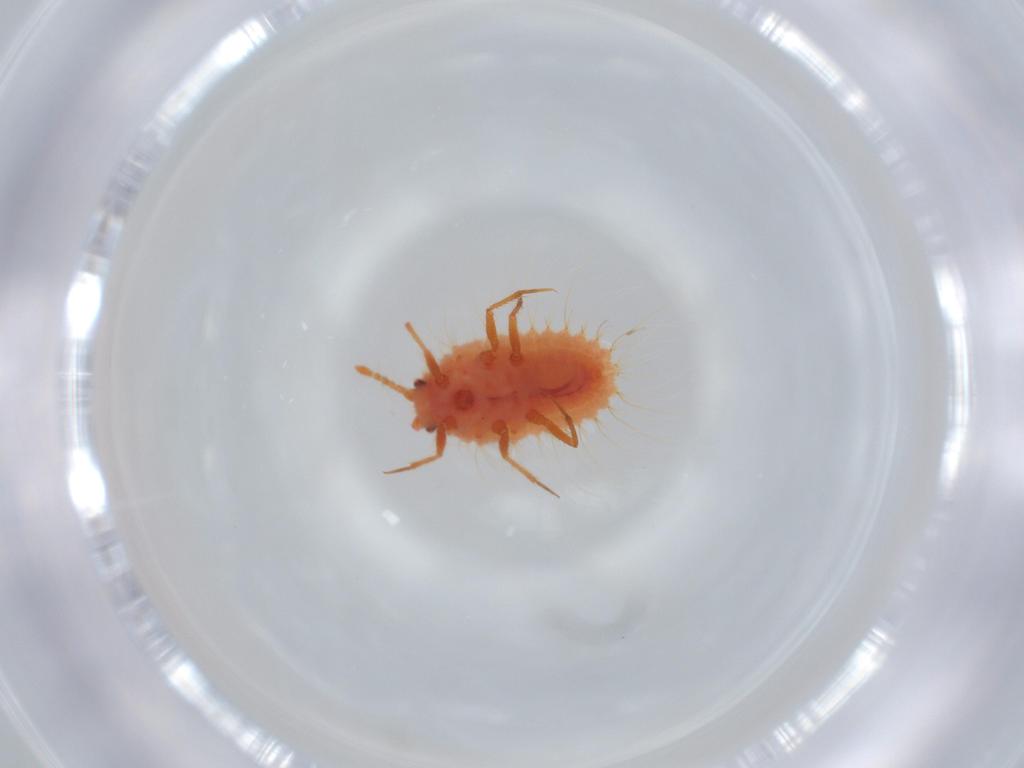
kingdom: Animalia
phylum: Arthropoda
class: Insecta
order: Hemiptera
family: Coccoidea_incertae_sedis
